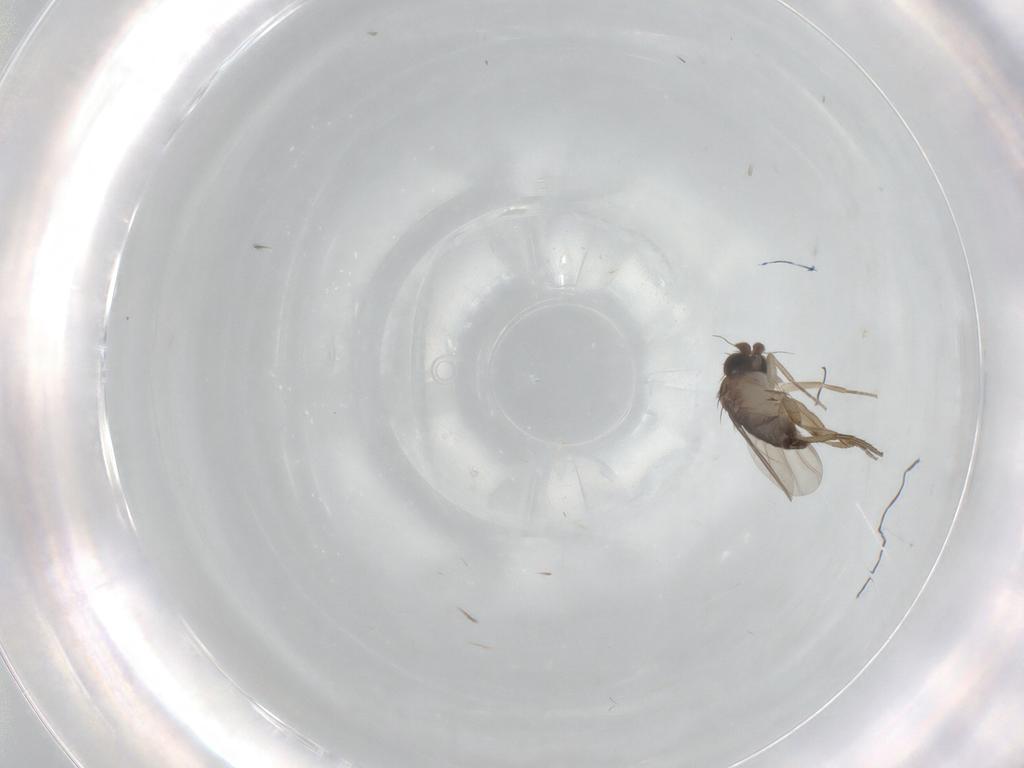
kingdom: Animalia
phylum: Arthropoda
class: Insecta
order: Diptera
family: Phoridae
